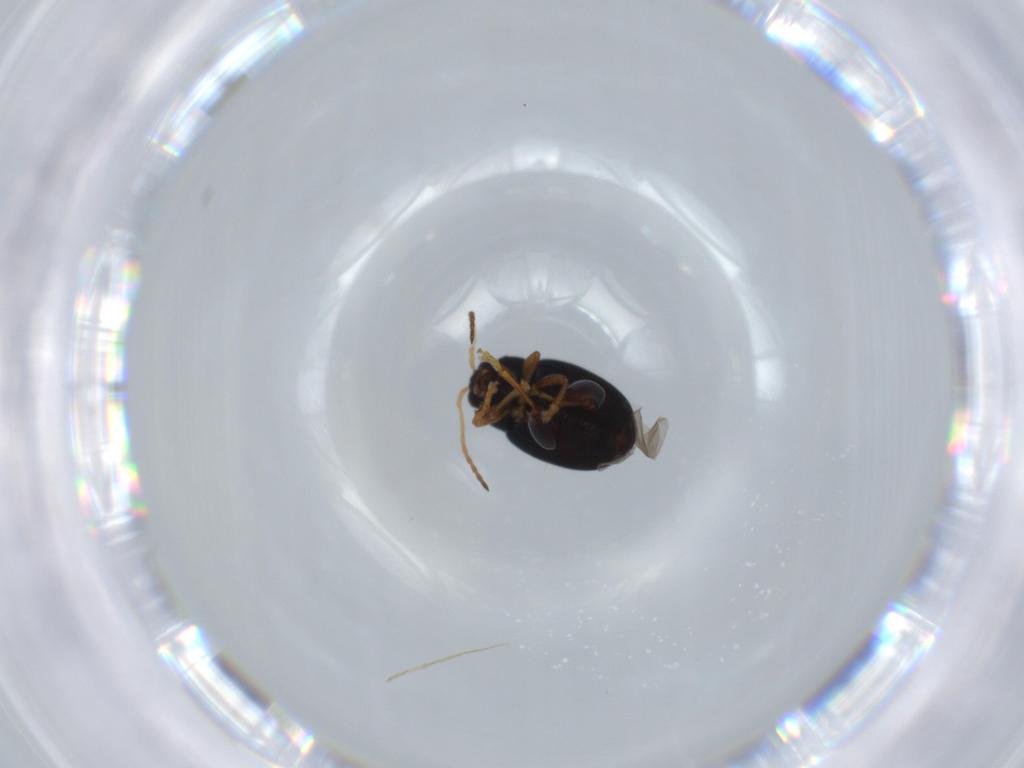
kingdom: Animalia
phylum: Arthropoda
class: Insecta
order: Coleoptera
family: Chrysomelidae
